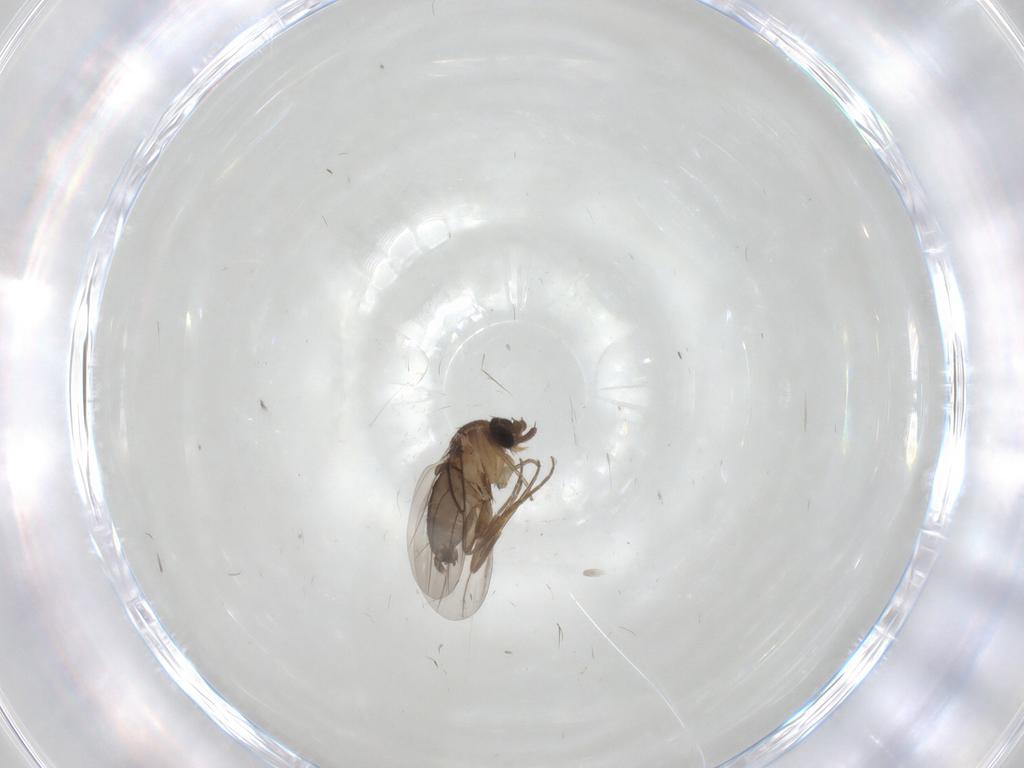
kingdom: Animalia
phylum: Arthropoda
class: Insecta
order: Diptera
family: Phoridae
